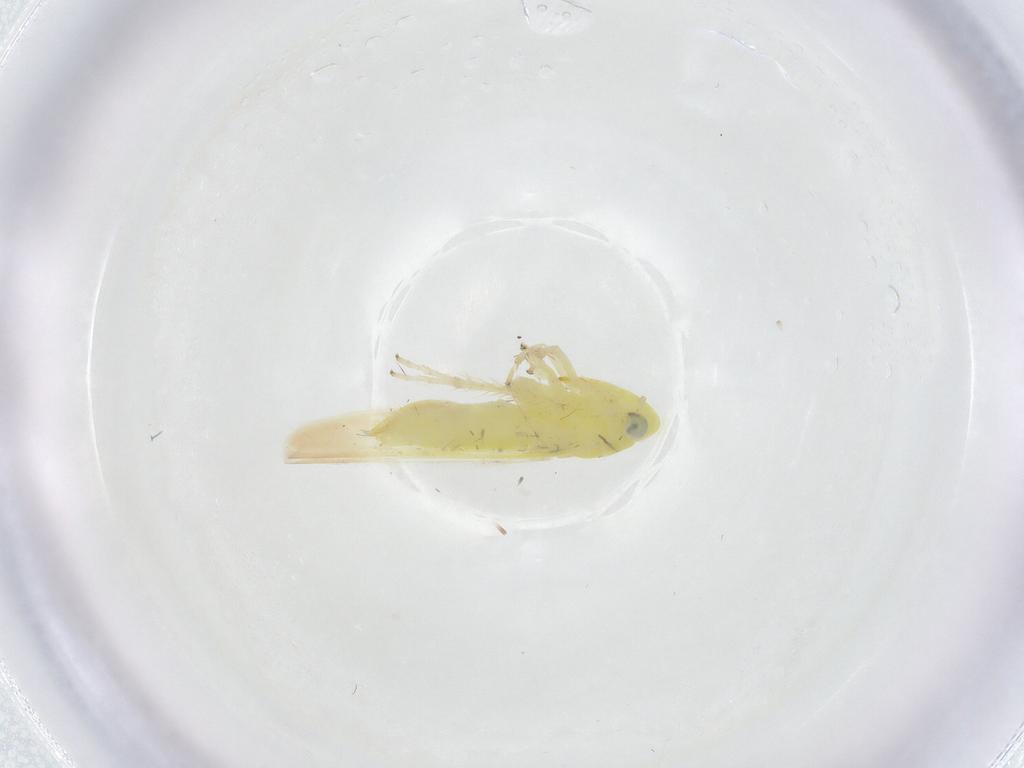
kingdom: Animalia
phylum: Arthropoda
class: Insecta
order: Hemiptera
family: Cicadellidae
